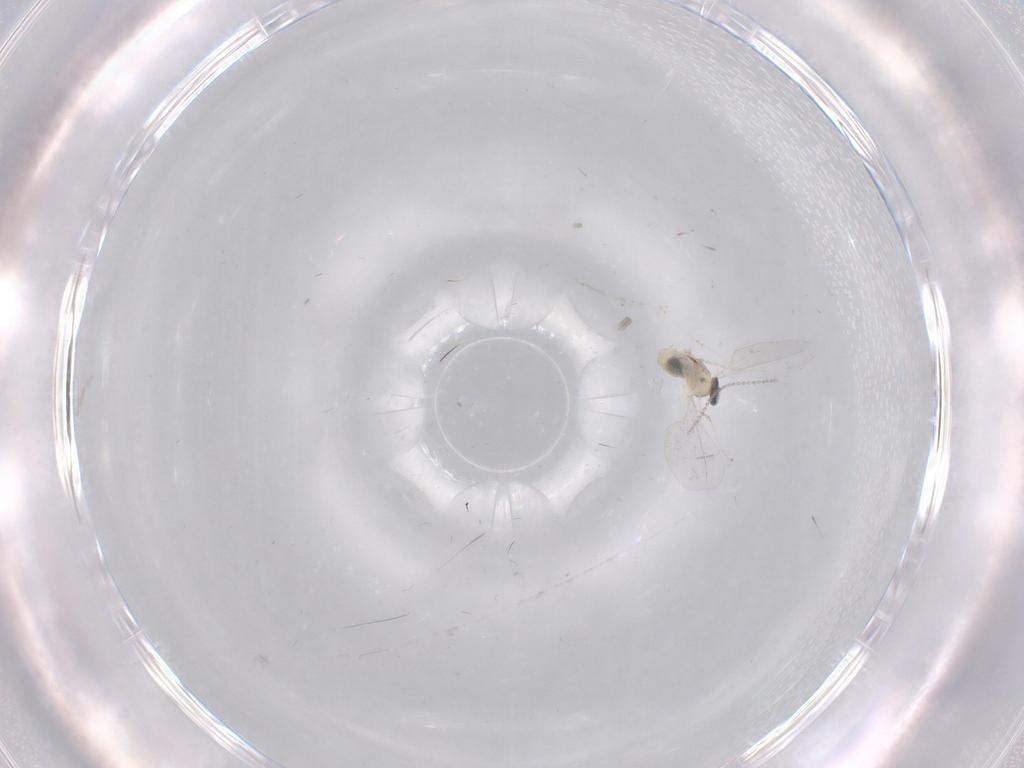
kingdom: Animalia
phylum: Arthropoda
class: Insecta
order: Diptera
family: Cecidomyiidae
